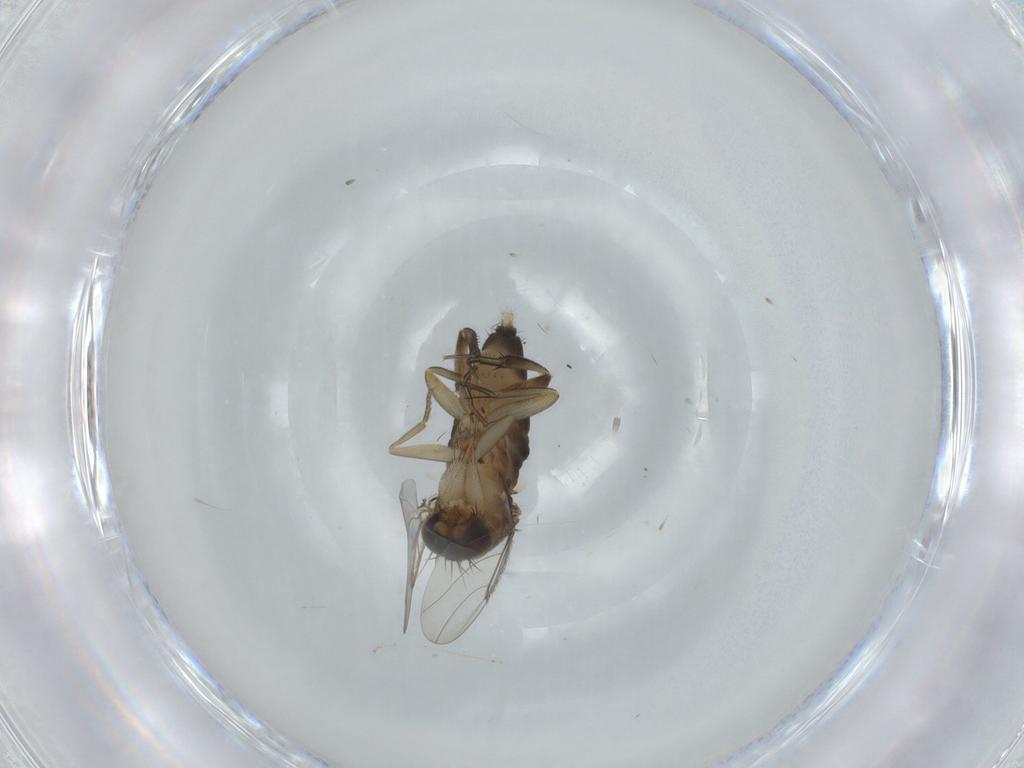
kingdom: Animalia
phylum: Arthropoda
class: Insecta
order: Diptera
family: Phoridae
